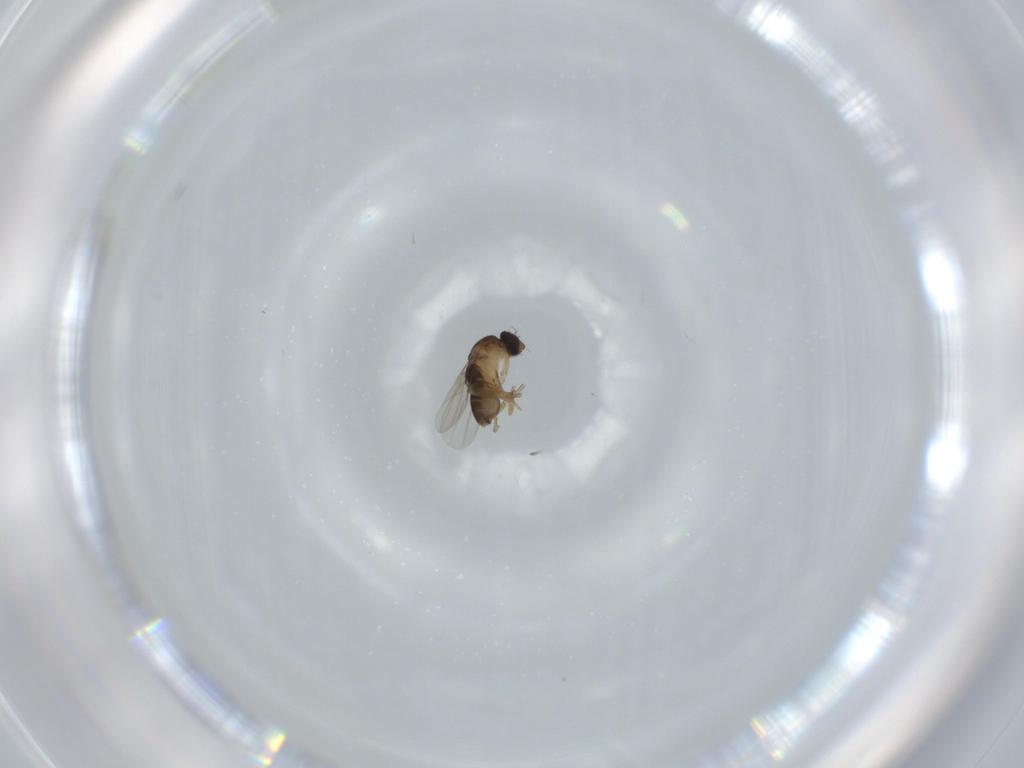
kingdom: Animalia
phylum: Arthropoda
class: Insecta
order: Diptera
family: Phoridae
